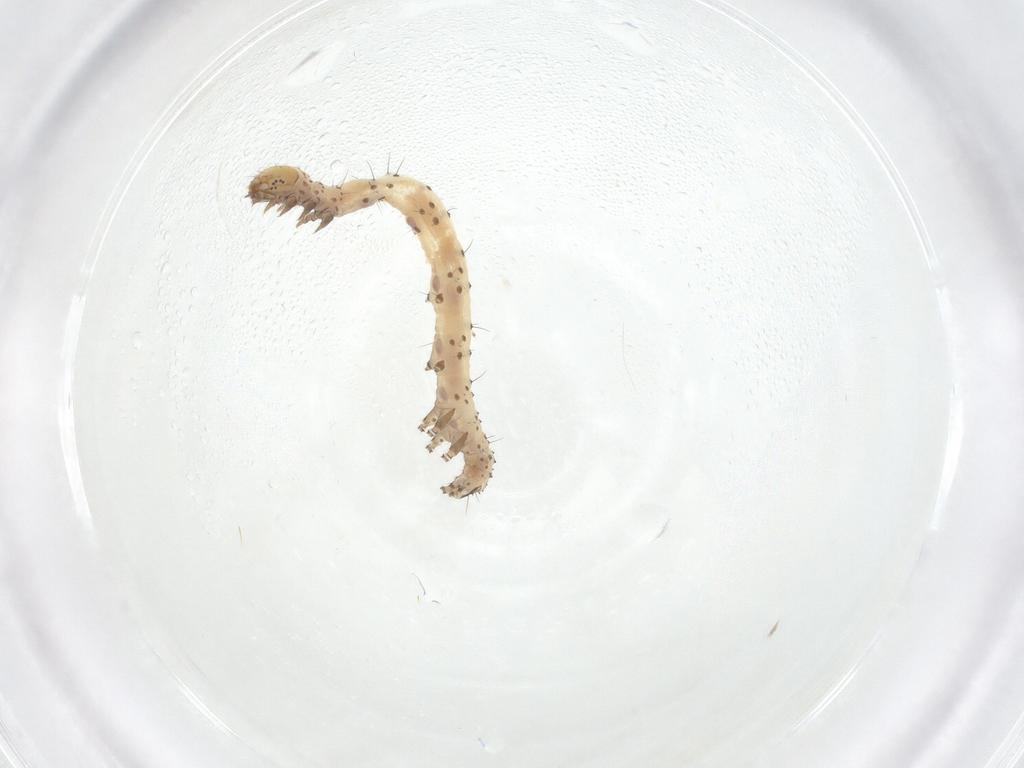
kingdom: Animalia
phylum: Arthropoda
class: Insecta
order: Lepidoptera
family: Erebidae
